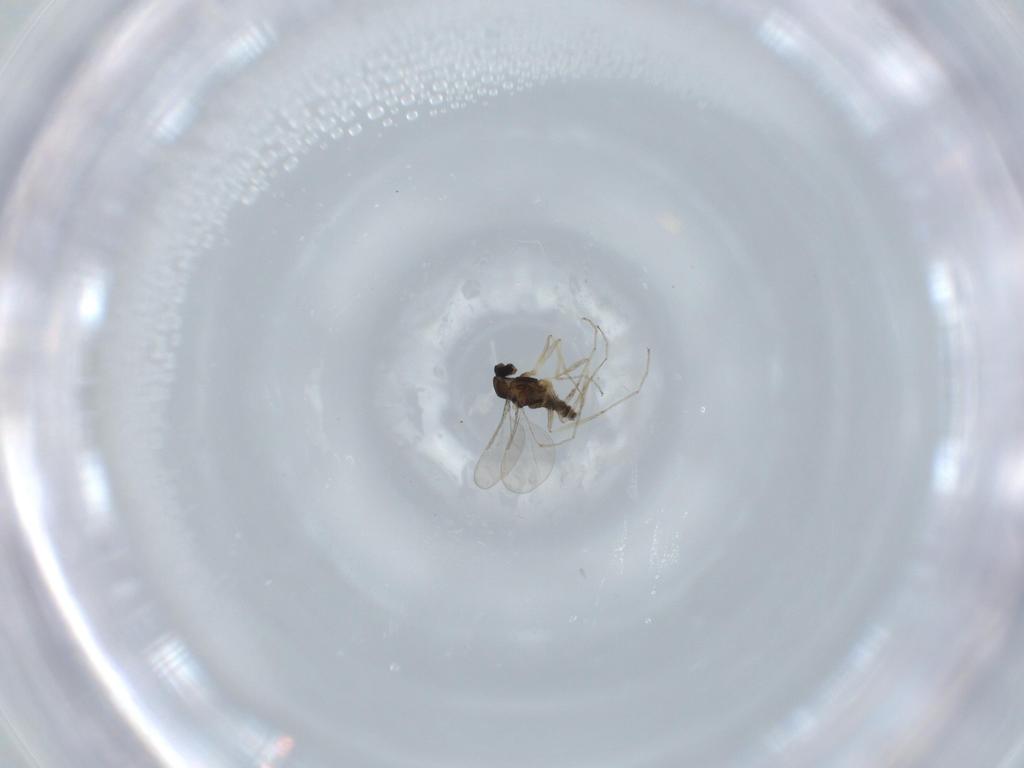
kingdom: Animalia
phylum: Arthropoda
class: Insecta
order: Diptera
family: Cecidomyiidae
